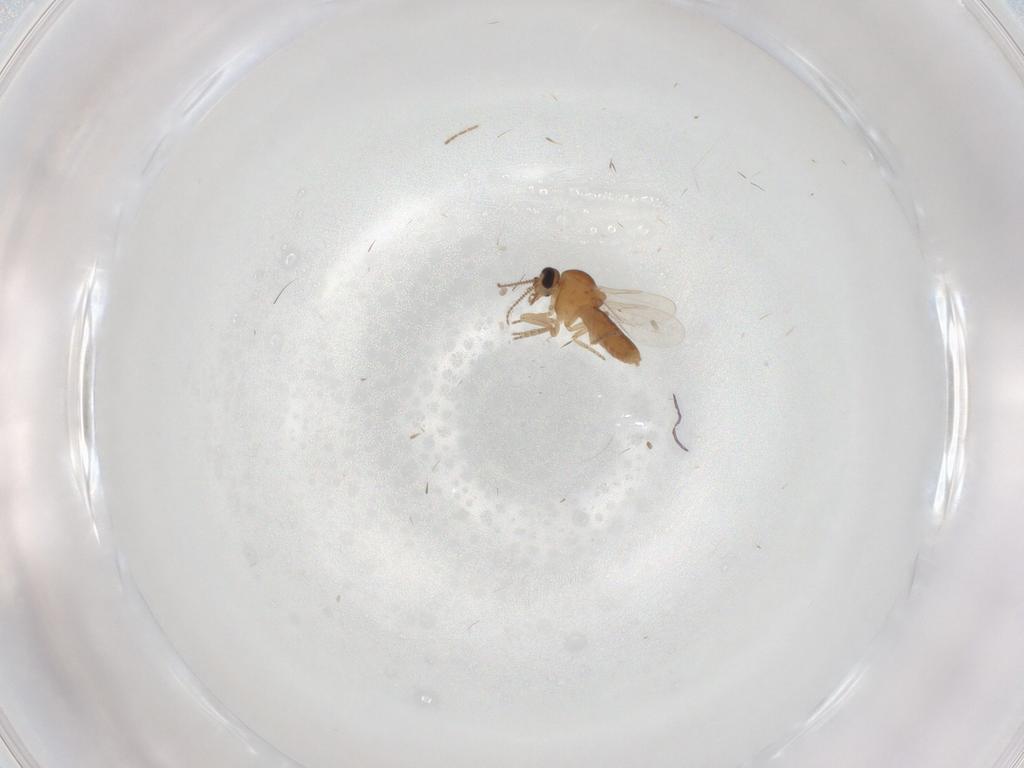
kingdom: Animalia
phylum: Arthropoda
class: Insecta
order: Diptera
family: Ceratopogonidae
